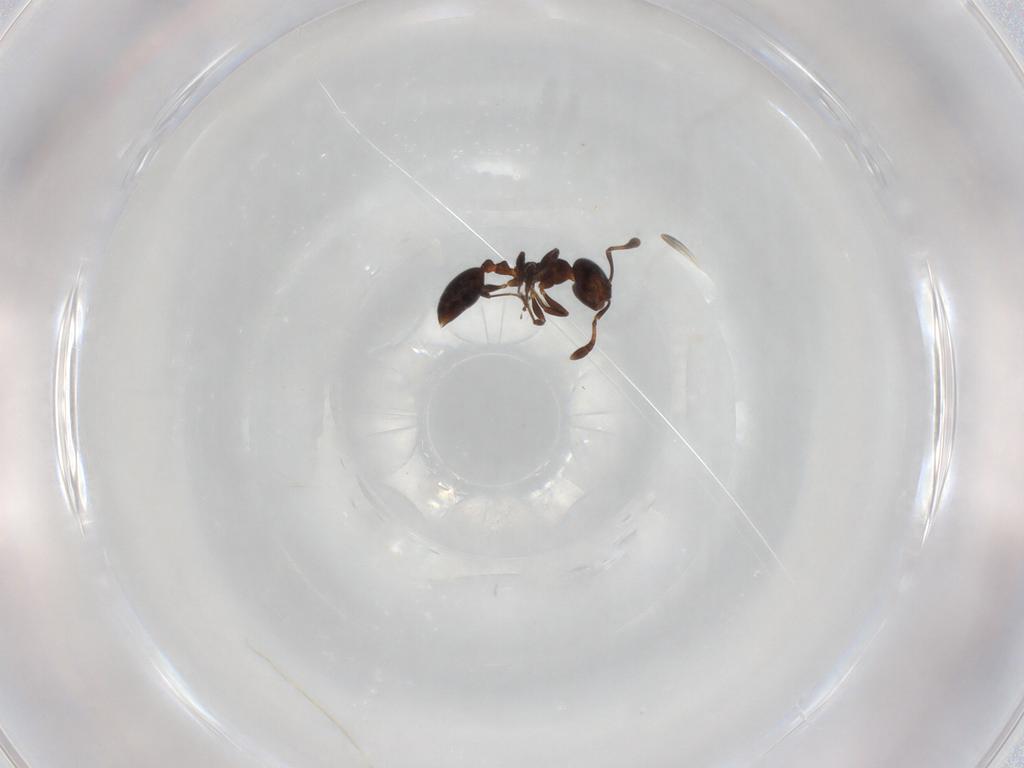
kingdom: Animalia
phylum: Arthropoda
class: Insecta
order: Hymenoptera
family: Formicidae
